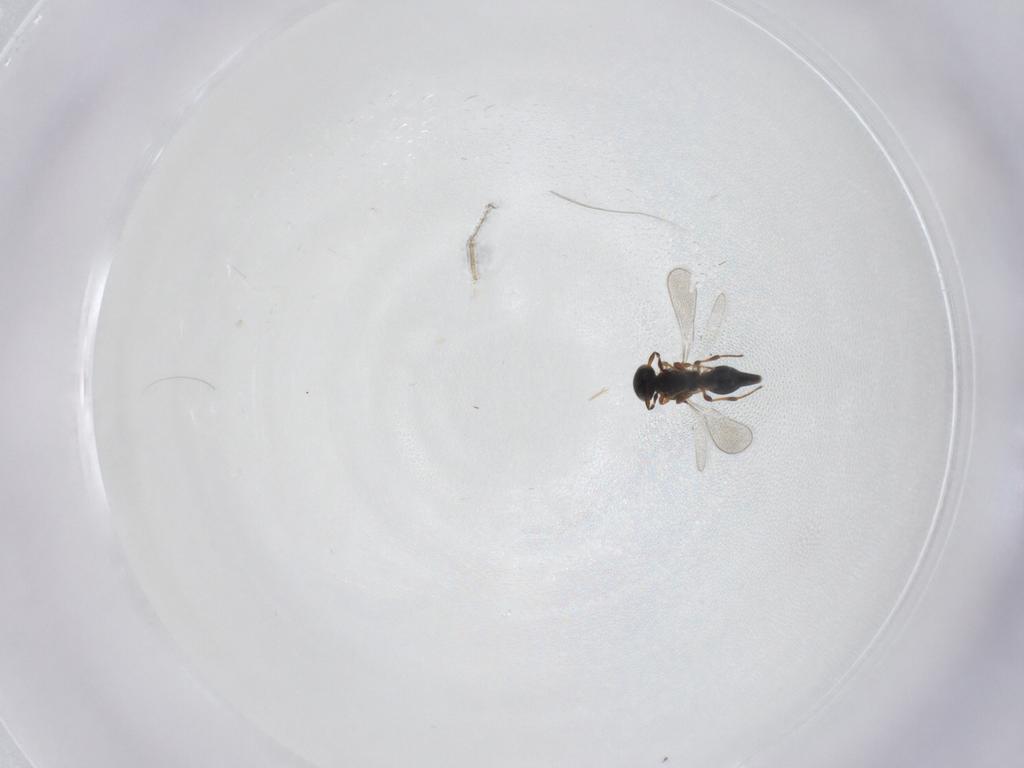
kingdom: Animalia
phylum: Arthropoda
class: Insecta
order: Hymenoptera
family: Platygastridae
